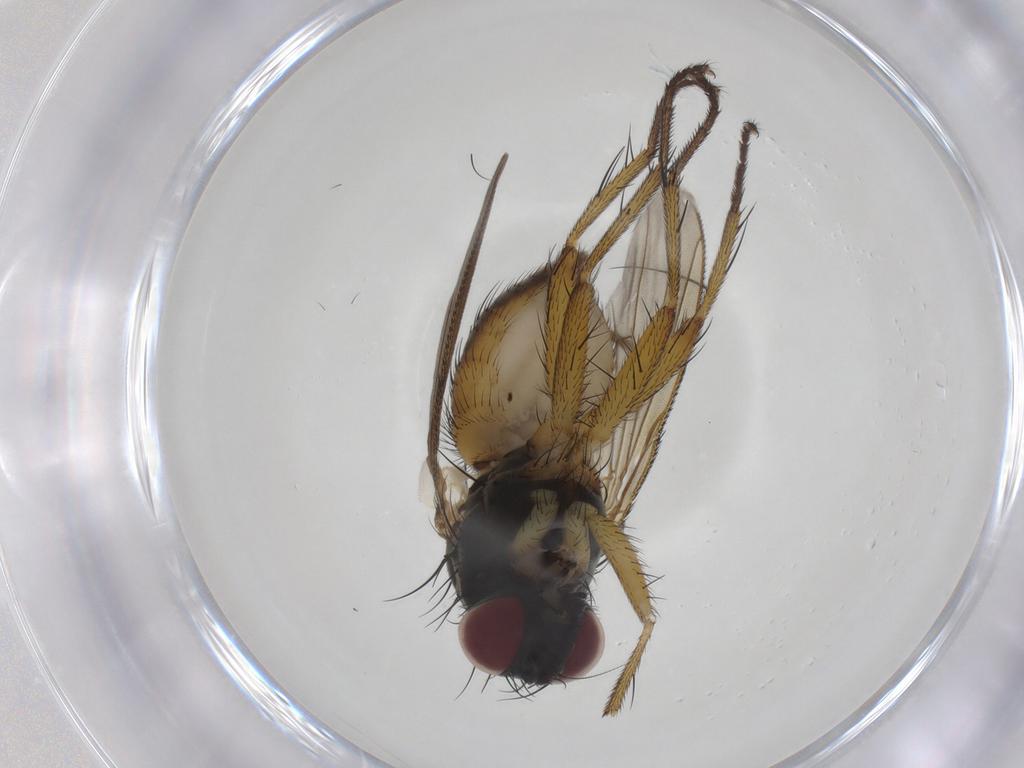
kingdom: Animalia
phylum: Arthropoda
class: Insecta
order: Diptera
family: Muscidae
